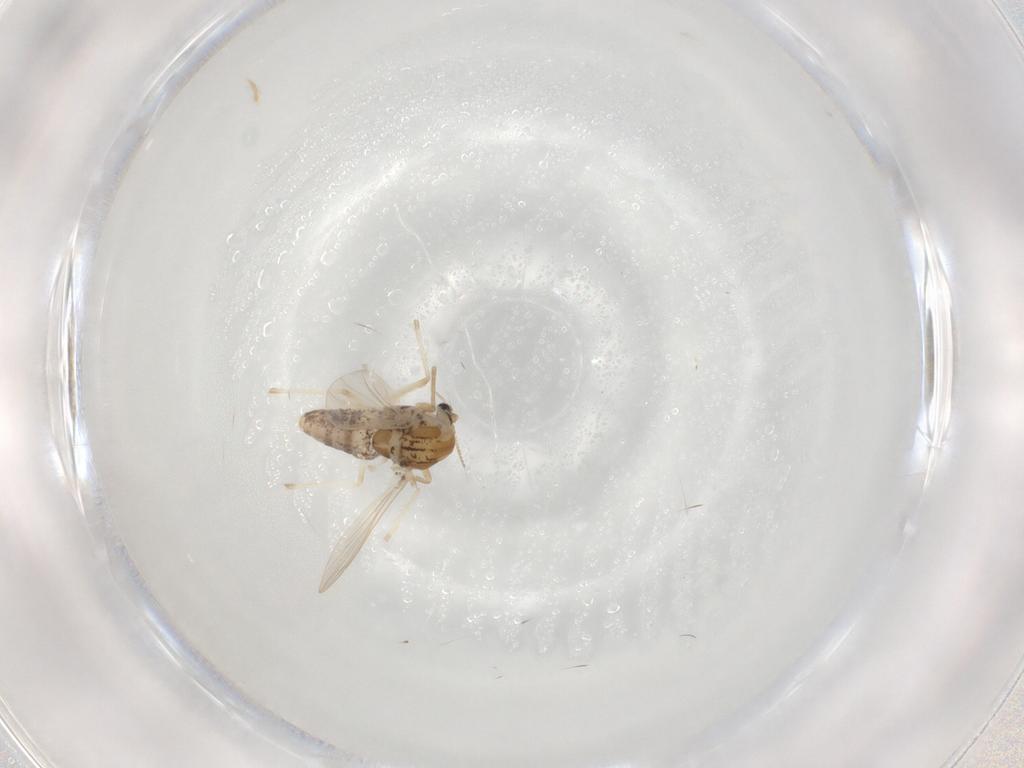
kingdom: Animalia
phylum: Arthropoda
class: Insecta
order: Diptera
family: Chironomidae
